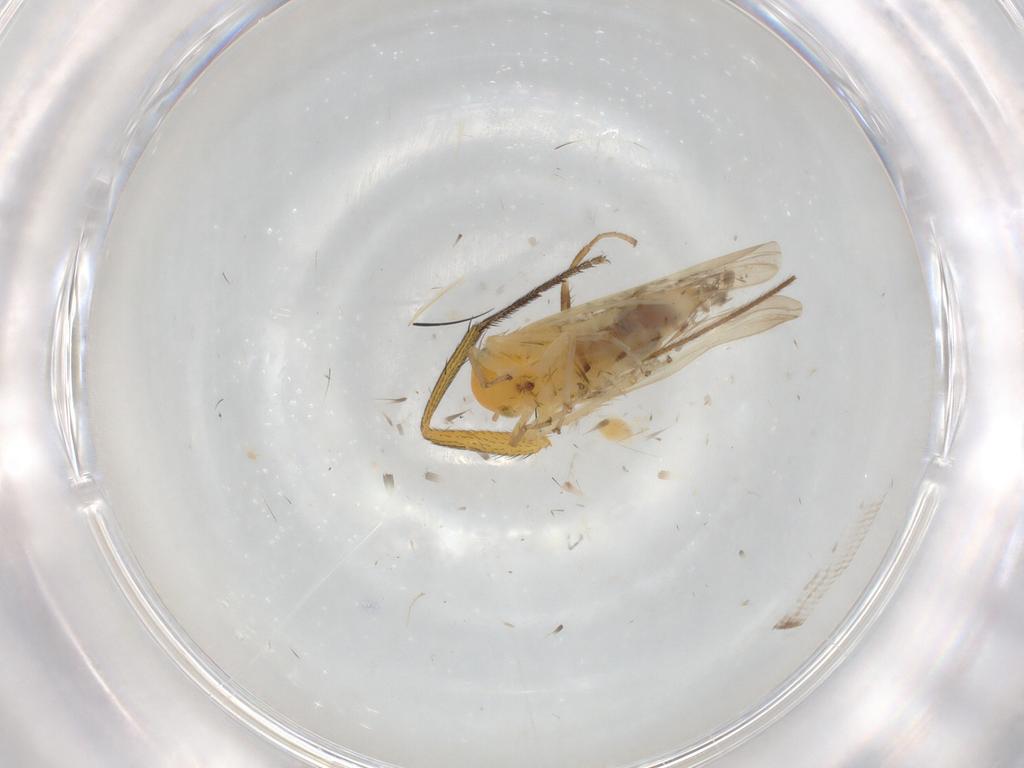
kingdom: Animalia
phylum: Arthropoda
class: Insecta
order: Hemiptera
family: Cicadellidae
